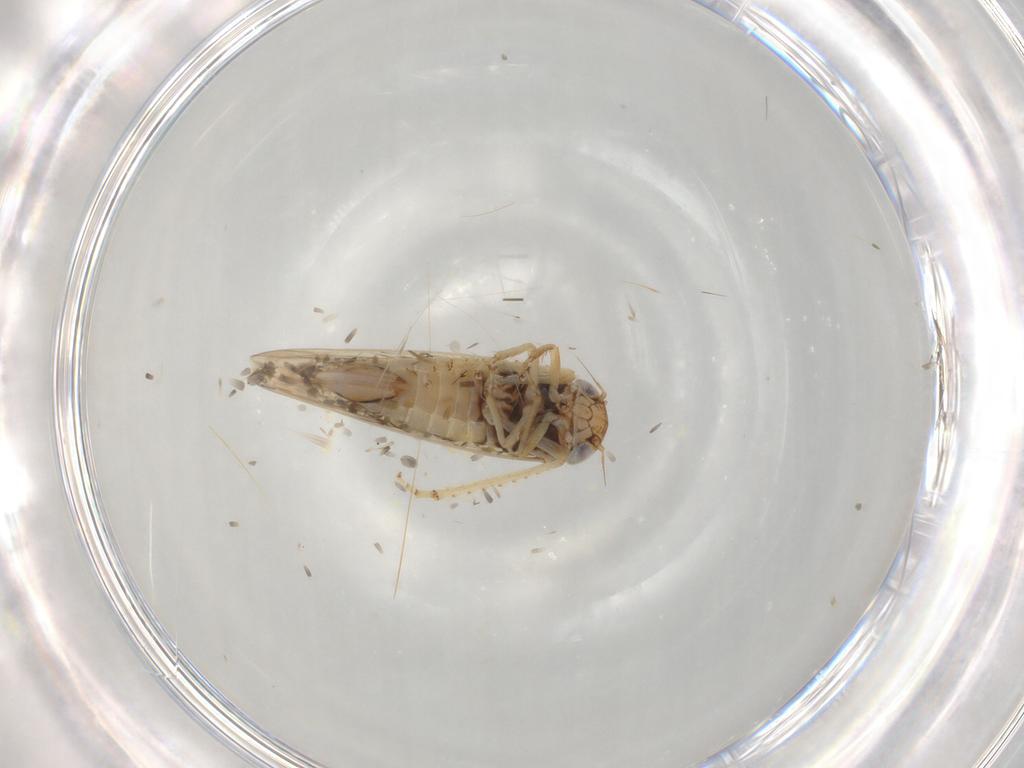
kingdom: Animalia
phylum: Arthropoda
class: Insecta
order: Hemiptera
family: Cicadellidae
